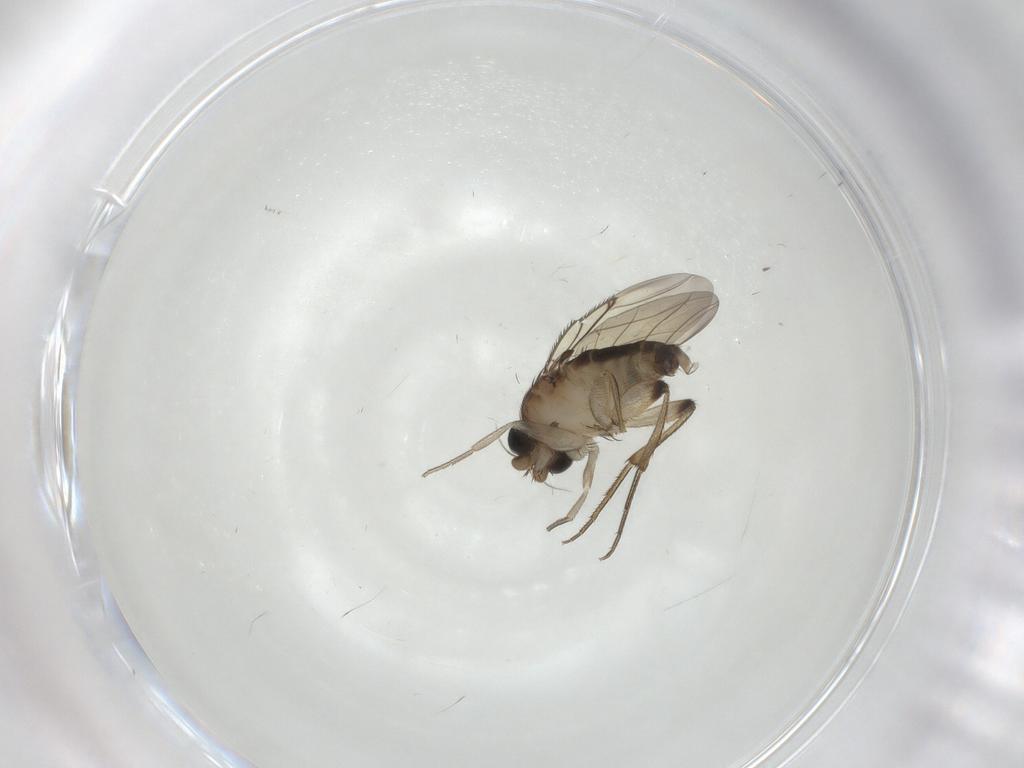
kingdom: Animalia
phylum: Arthropoda
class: Insecta
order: Diptera
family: Phoridae
